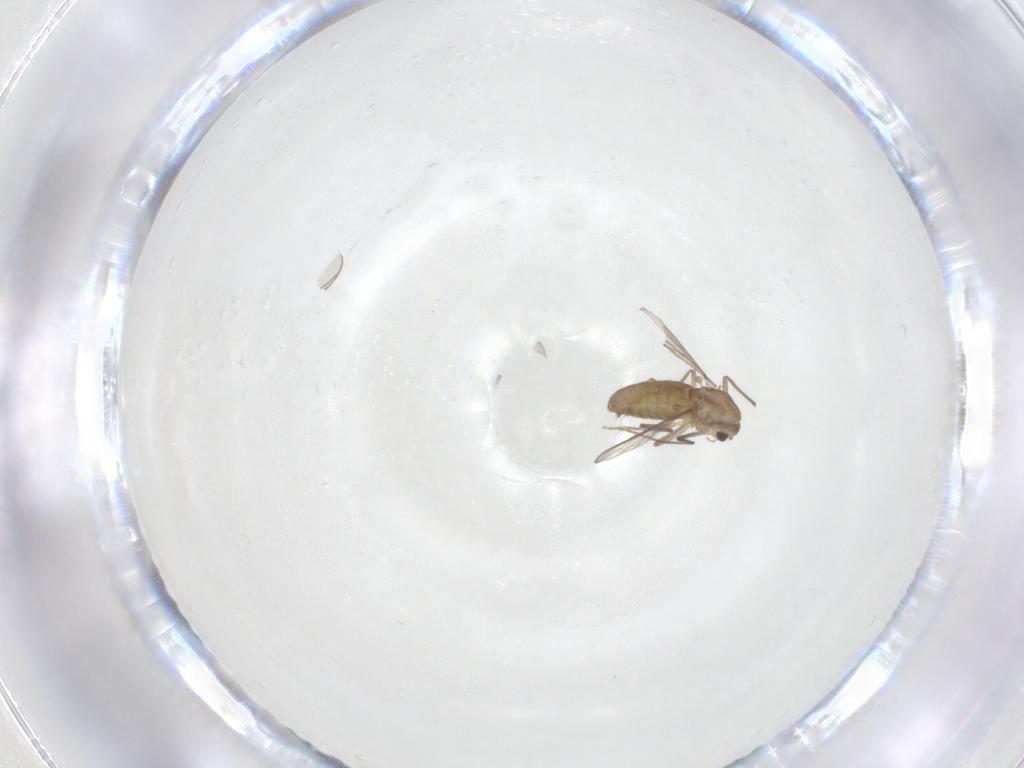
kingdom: Animalia
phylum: Arthropoda
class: Insecta
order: Diptera
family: Chironomidae
